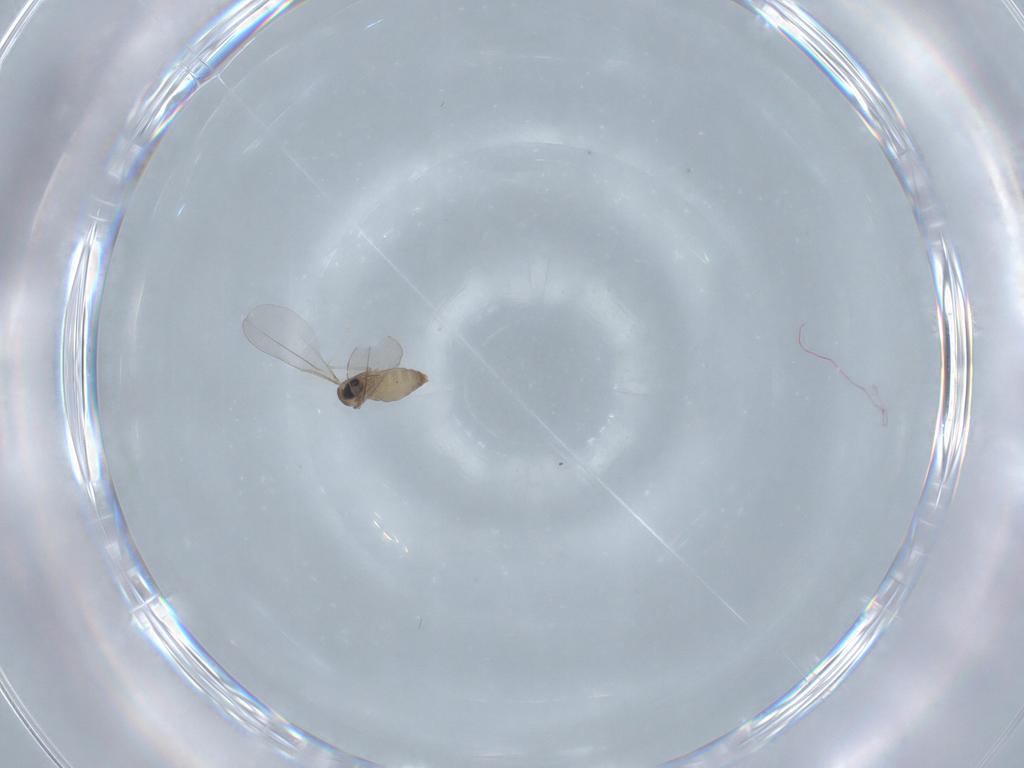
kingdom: Animalia
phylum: Arthropoda
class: Insecta
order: Diptera
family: Cecidomyiidae
